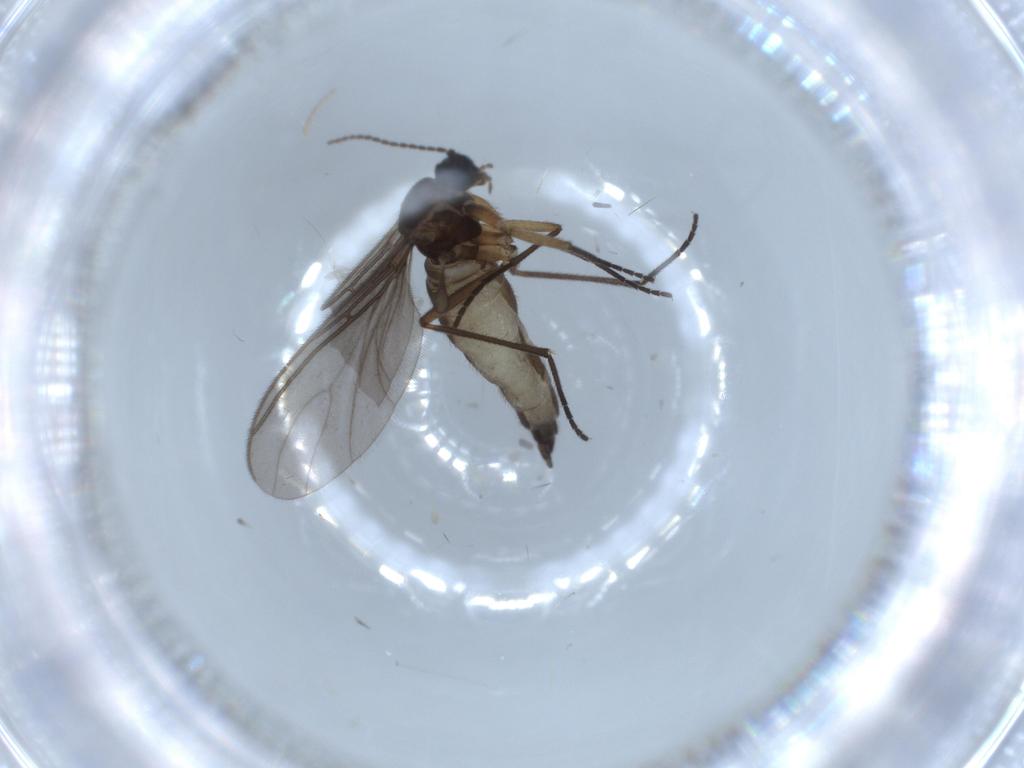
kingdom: Animalia
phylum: Arthropoda
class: Insecta
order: Diptera
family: Sciaridae
